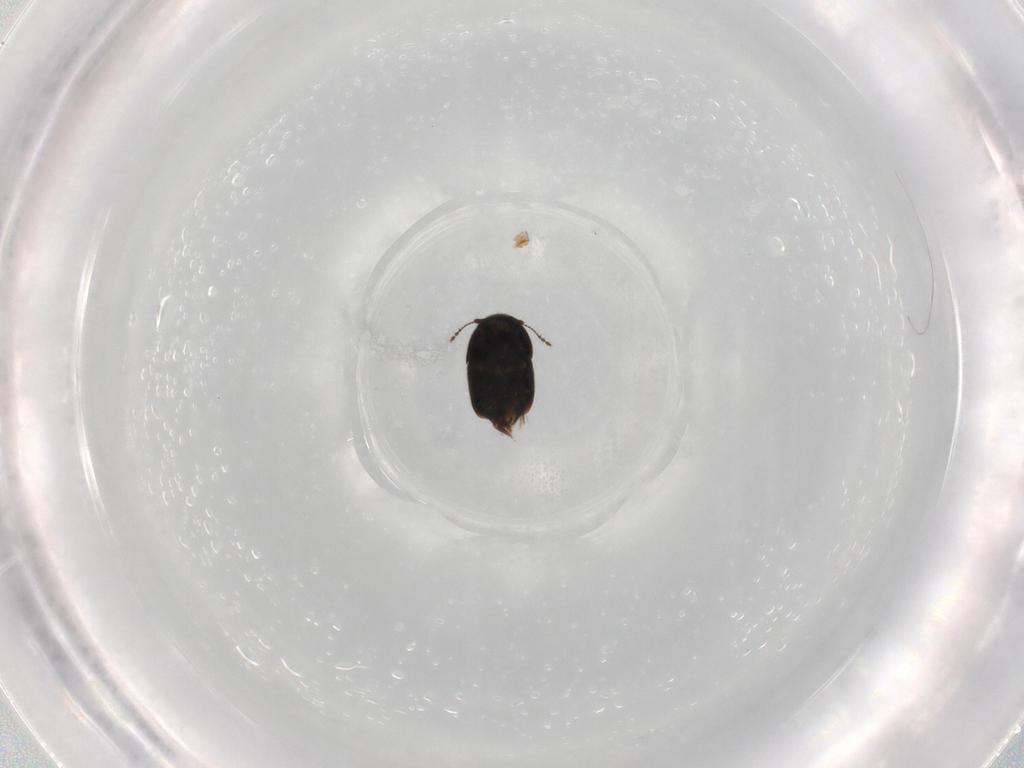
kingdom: Animalia
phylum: Arthropoda
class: Insecta
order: Coleoptera
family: Ptiliidae
